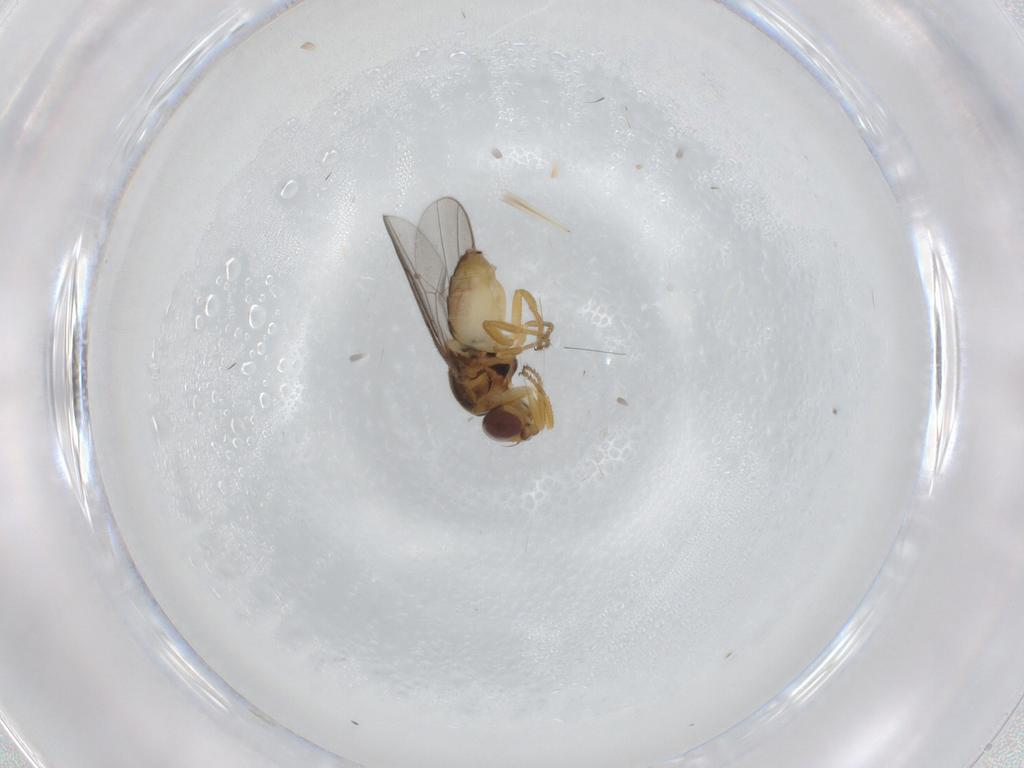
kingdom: Animalia
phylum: Arthropoda
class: Insecta
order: Diptera
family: Chloropidae
